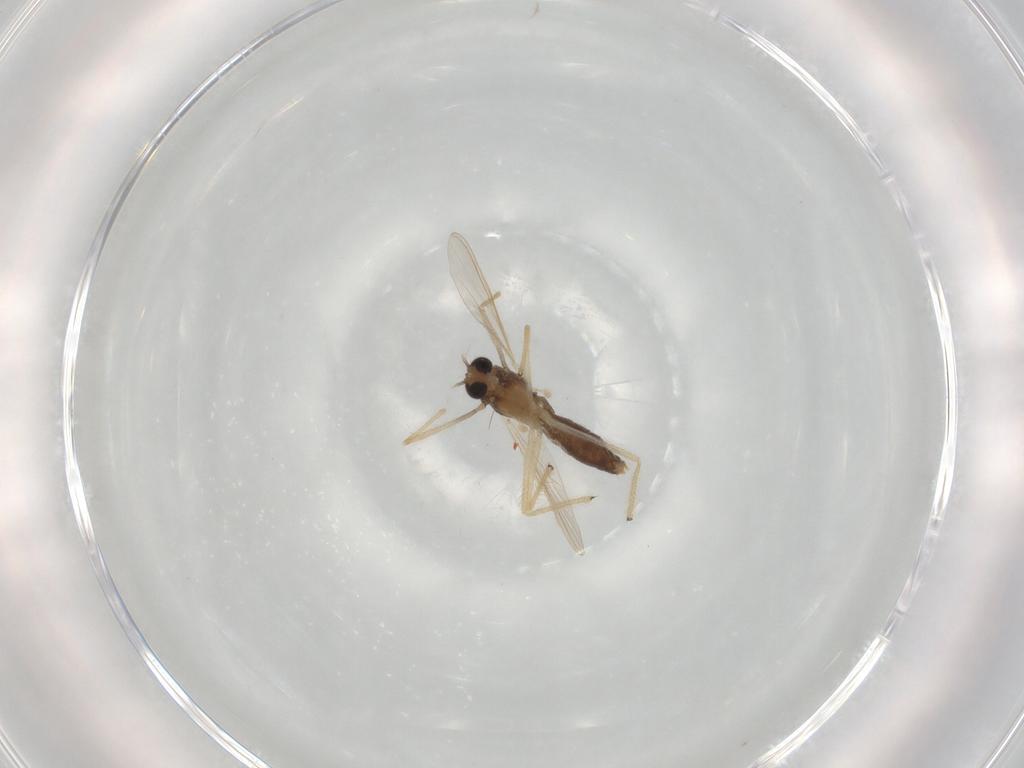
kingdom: Animalia
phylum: Arthropoda
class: Insecta
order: Diptera
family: Chironomidae
